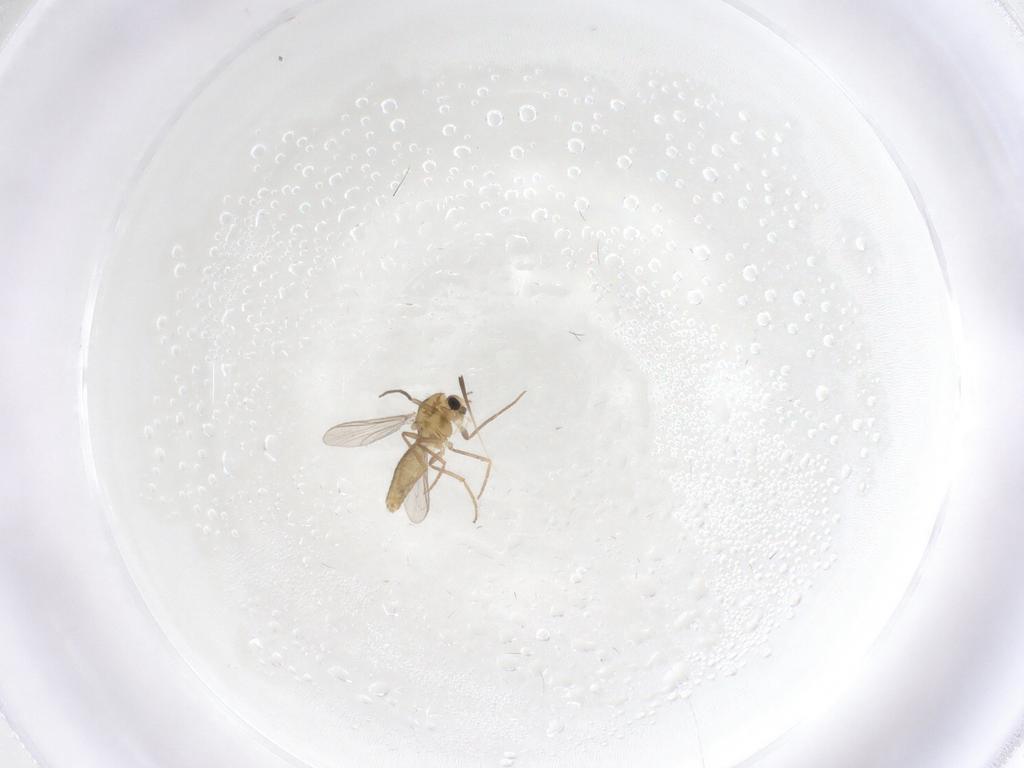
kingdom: Animalia
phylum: Arthropoda
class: Insecta
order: Diptera
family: Chironomidae
